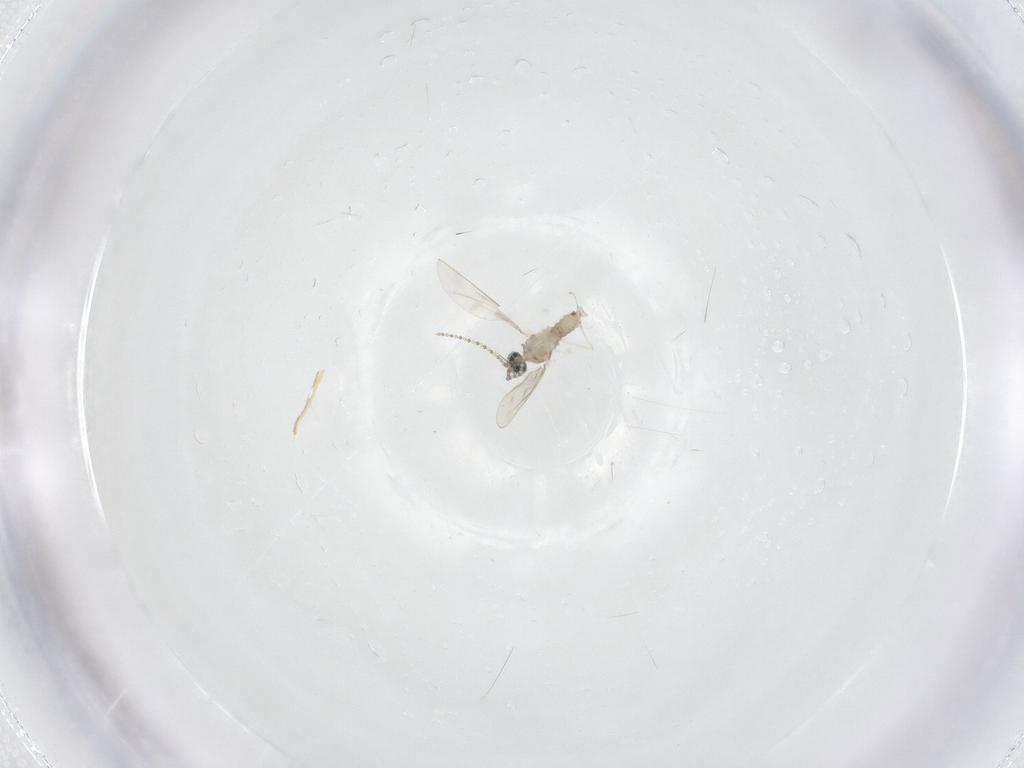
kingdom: Animalia
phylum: Arthropoda
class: Insecta
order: Diptera
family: Cecidomyiidae
